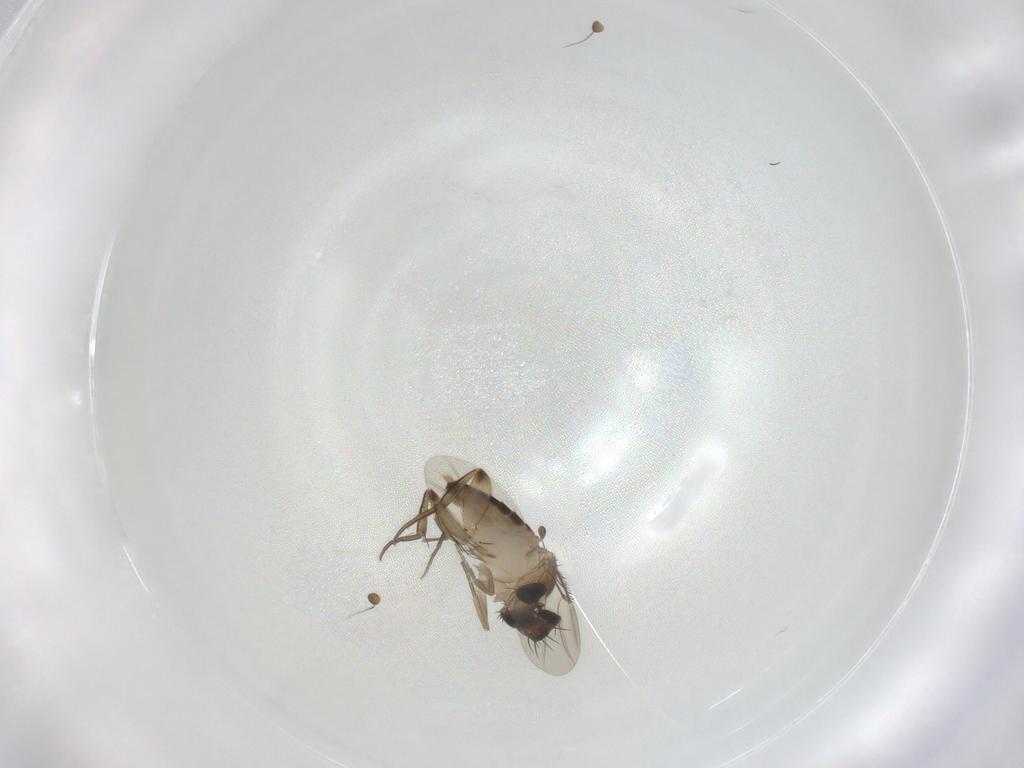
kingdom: Animalia
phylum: Arthropoda
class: Insecta
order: Diptera
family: Phoridae
